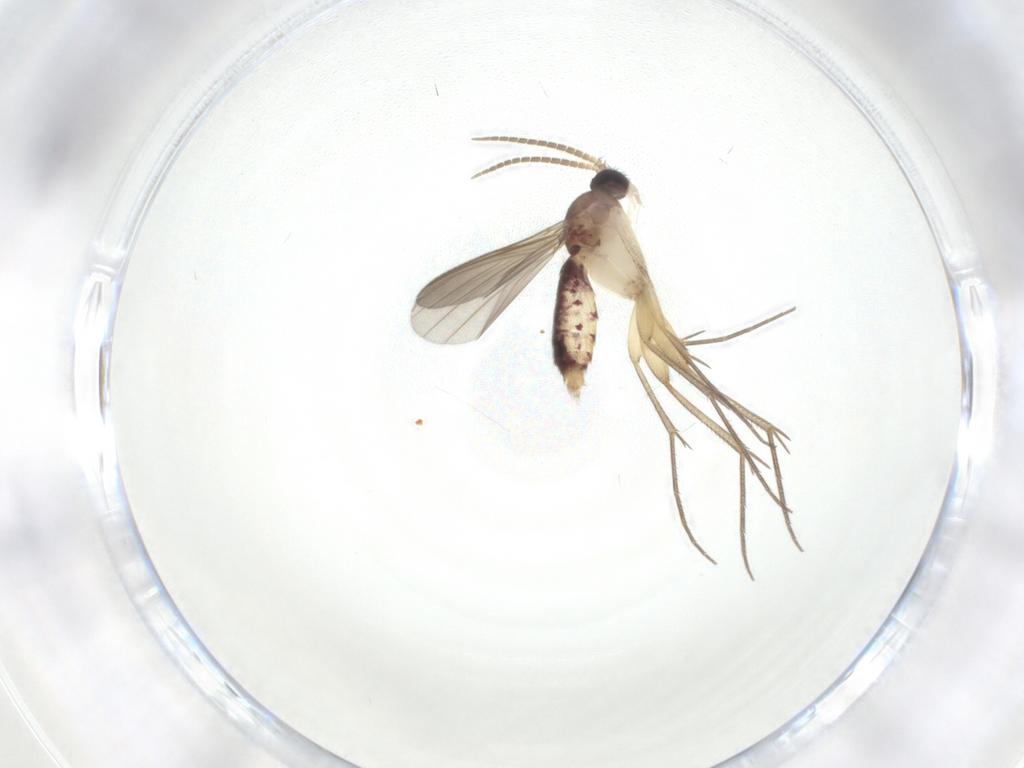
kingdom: Animalia
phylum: Arthropoda
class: Insecta
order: Diptera
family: Mycetophilidae
